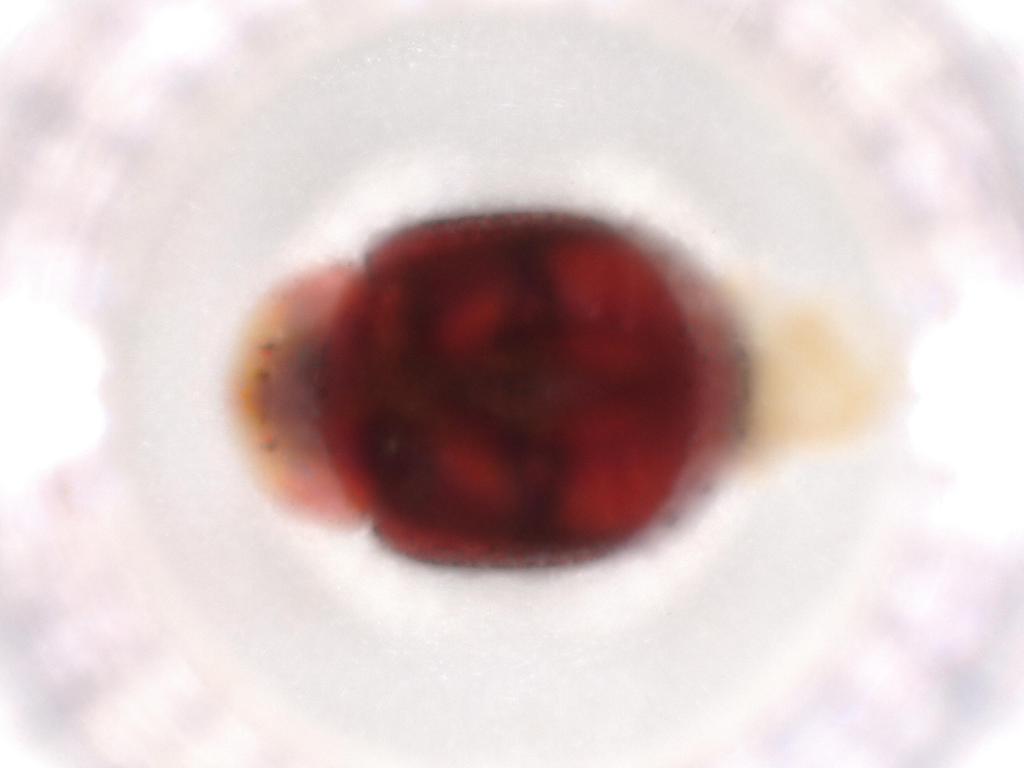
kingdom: Animalia
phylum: Arthropoda
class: Insecta
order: Coleoptera
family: Coccinellidae
